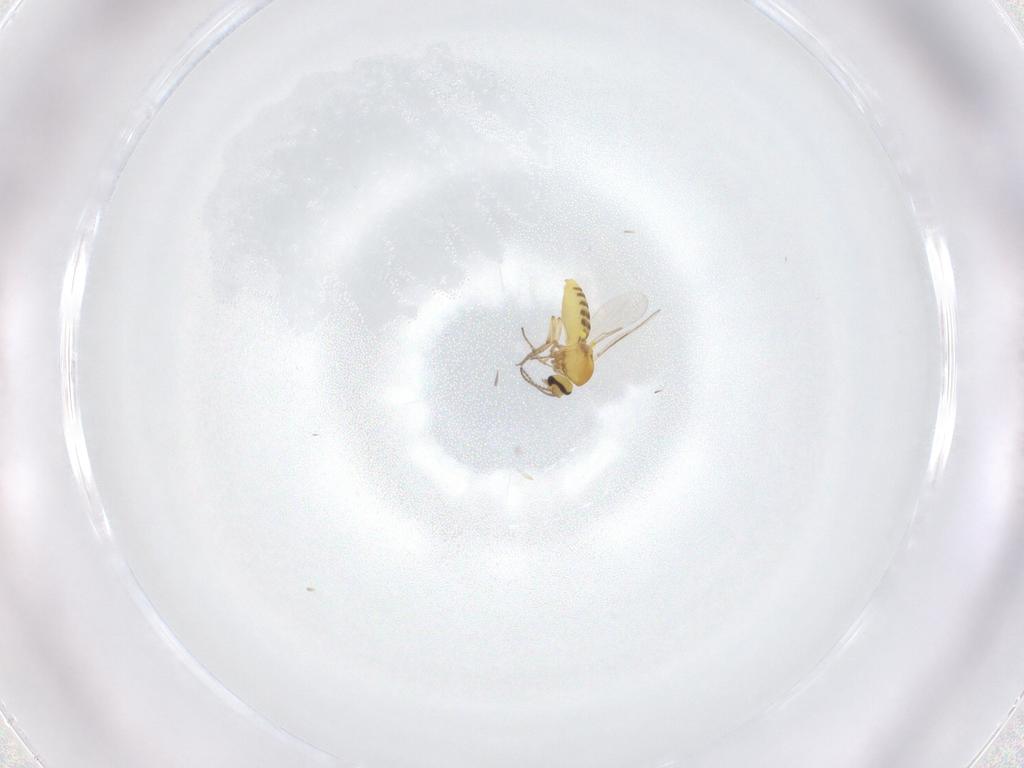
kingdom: Animalia
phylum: Arthropoda
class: Insecta
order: Diptera
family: Ceratopogonidae
